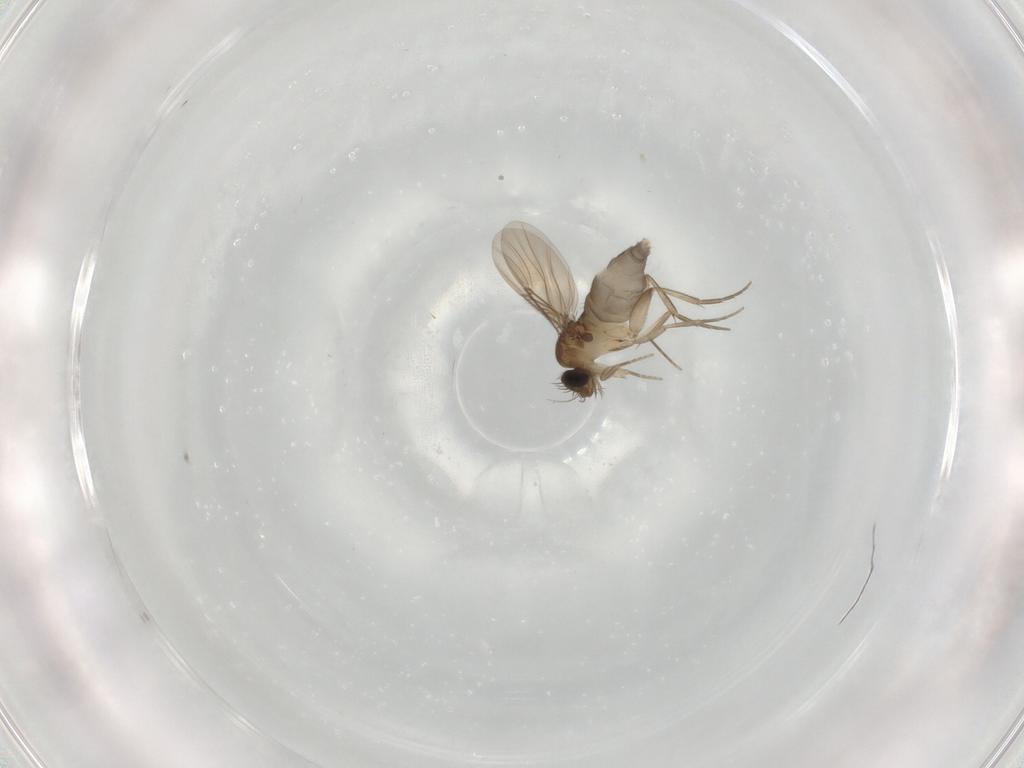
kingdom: Animalia
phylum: Arthropoda
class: Insecta
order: Diptera
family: Phoridae
